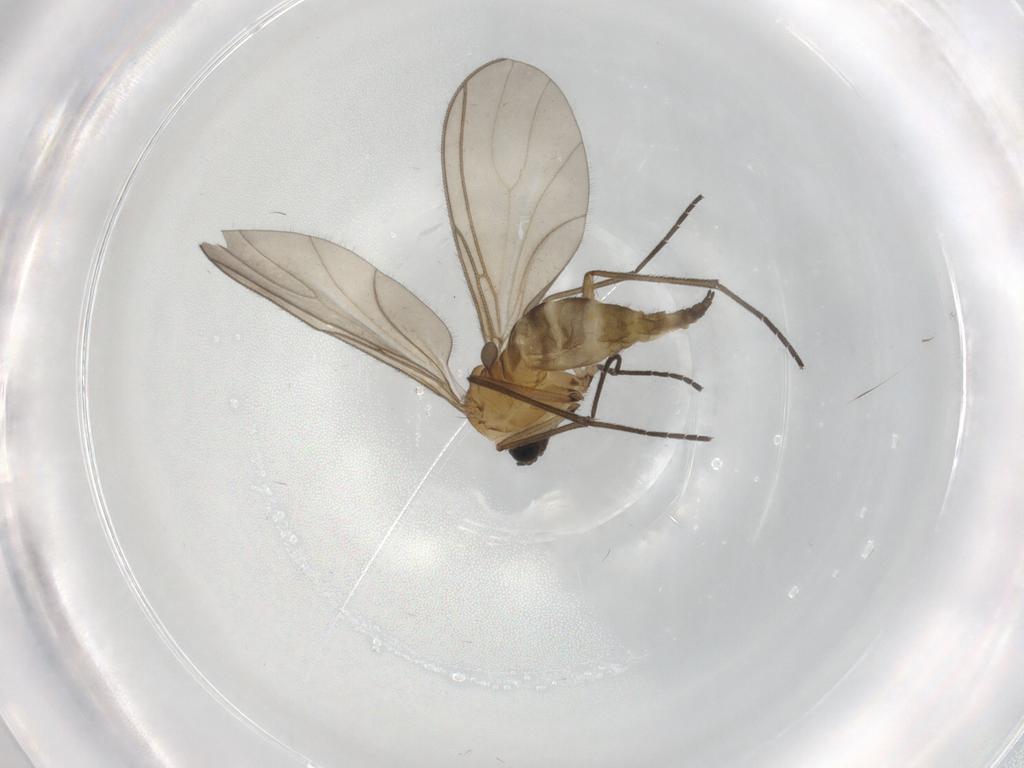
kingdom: Animalia
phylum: Arthropoda
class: Insecta
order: Diptera
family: Sciaridae
